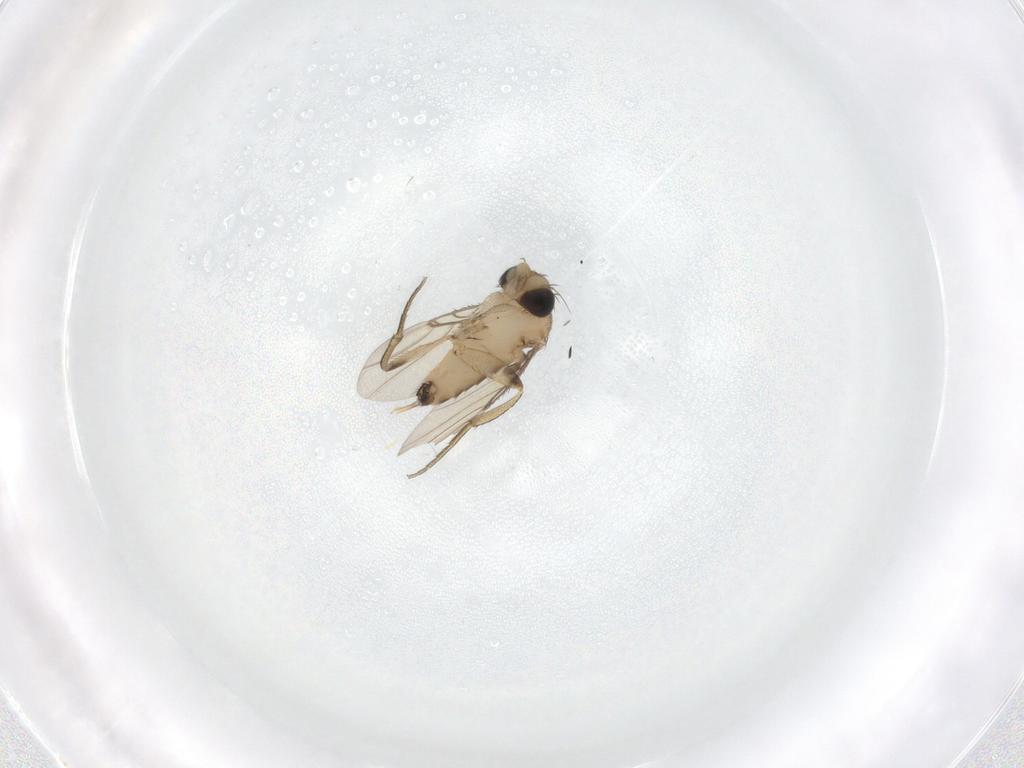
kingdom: Animalia
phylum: Arthropoda
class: Insecta
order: Diptera
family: Phoridae
